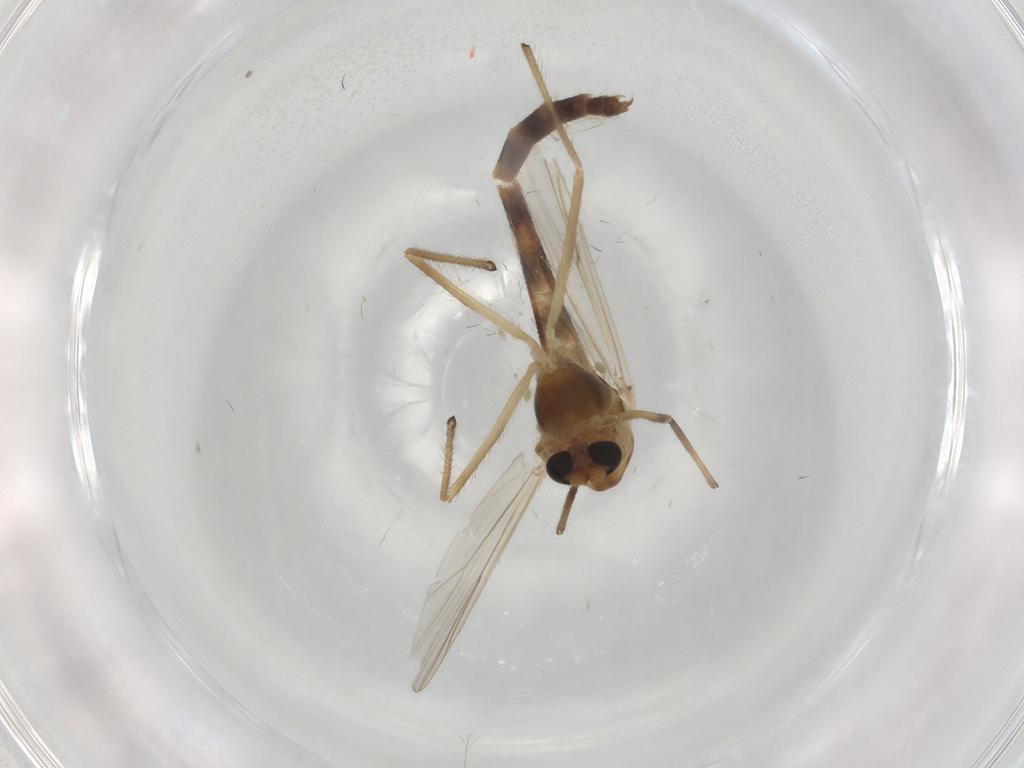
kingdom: Animalia
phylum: Arthropoda
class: Insecta
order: Diptera
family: Chironomidae
